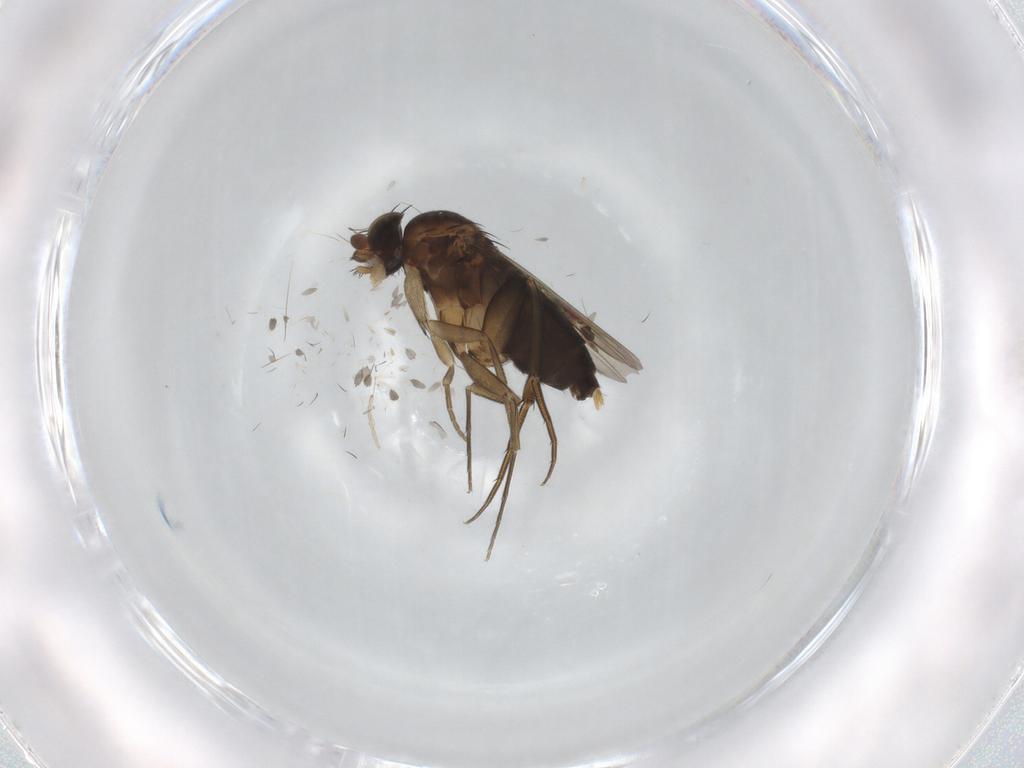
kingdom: Animalia
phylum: Arthropoda
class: Insecta
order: Diptera
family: Phoridae
